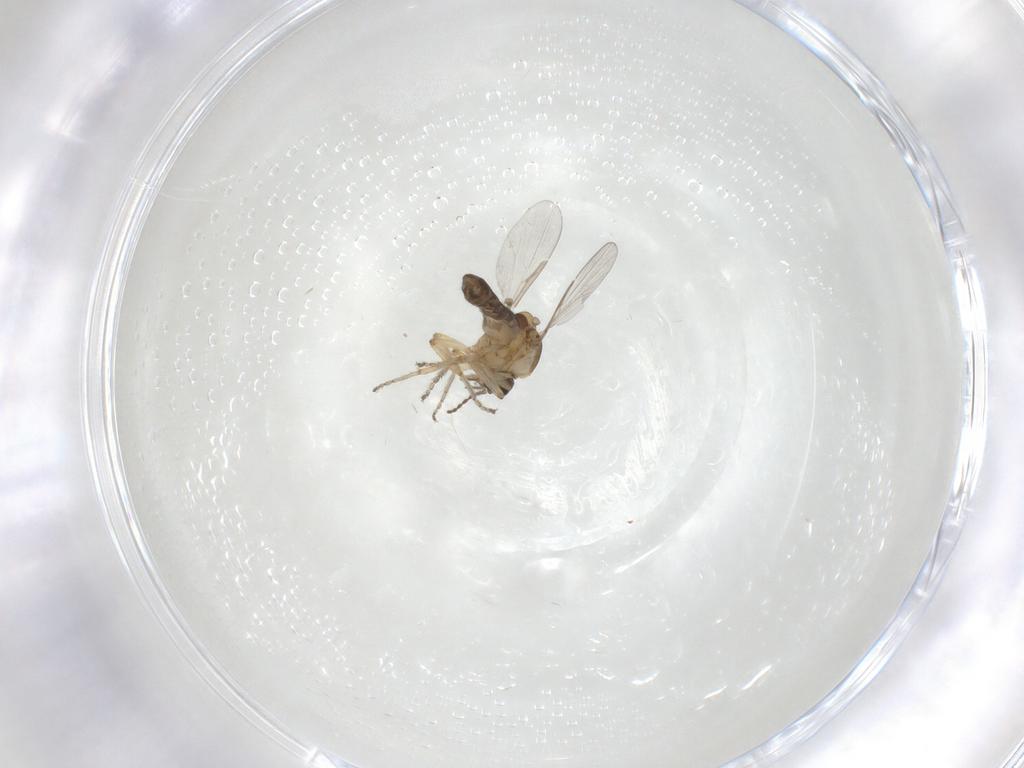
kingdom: Animalia
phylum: Arthropoda
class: Insecta
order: Diptera
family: Ceratopogonidae
